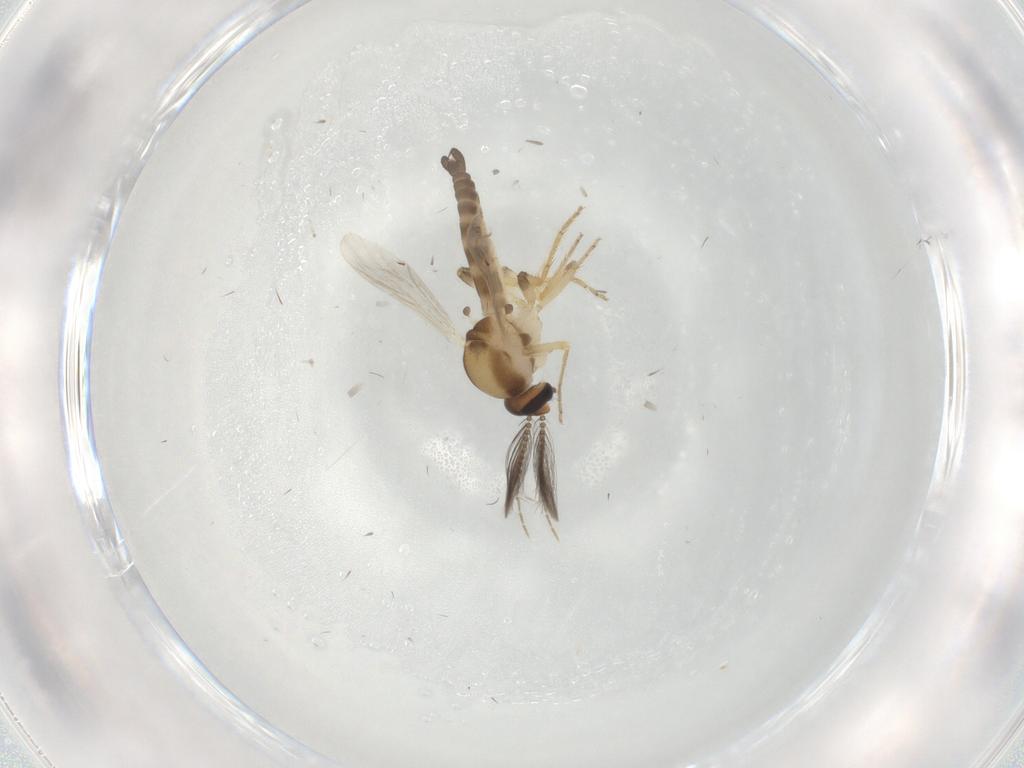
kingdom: Animalia
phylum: Arthropoda
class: Insecta
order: Diptera
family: Ceratopogonidae
